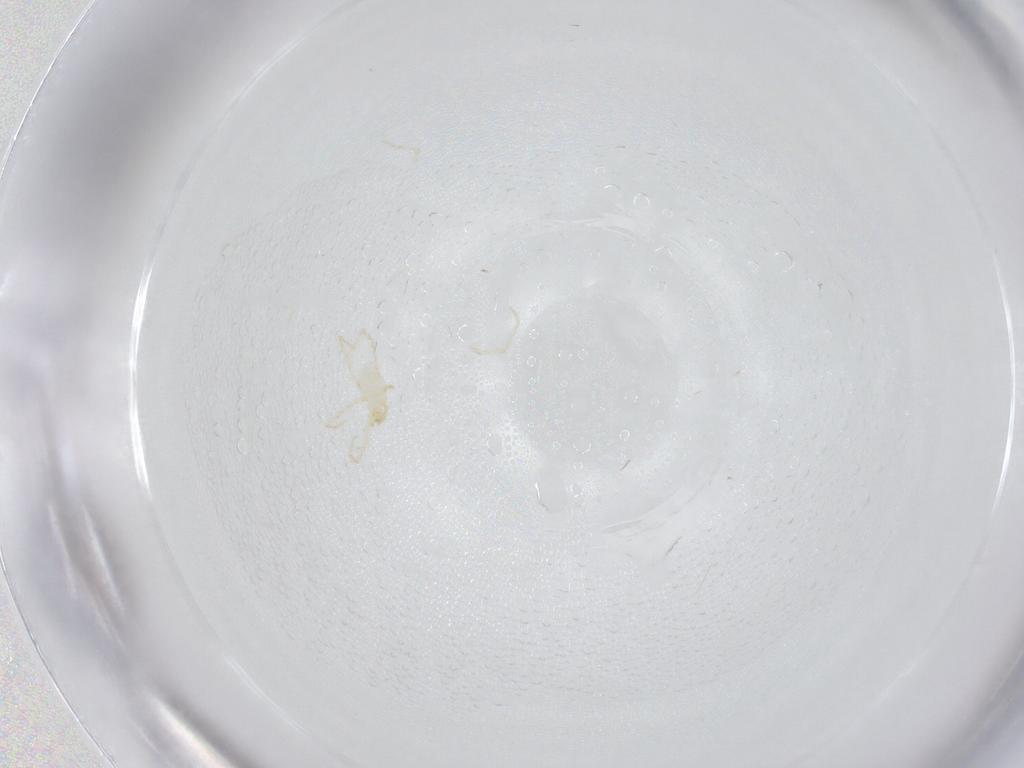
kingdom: Animalia
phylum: Arthropoda
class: Arachnida
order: Trombidiformes
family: Erythraeidae
